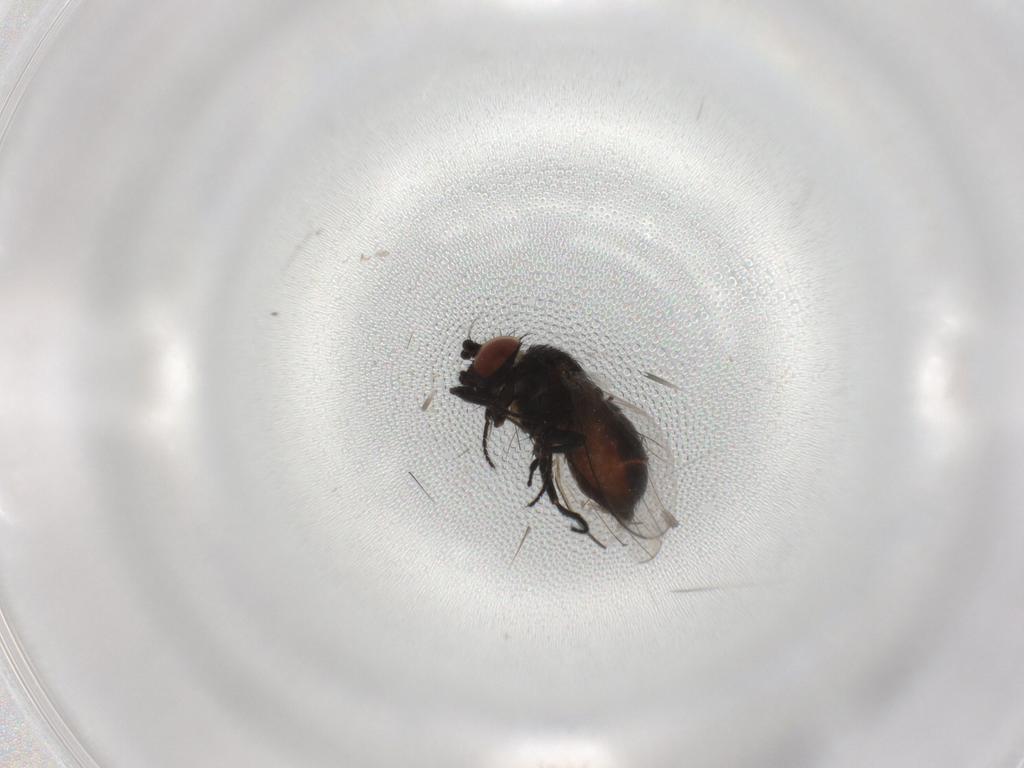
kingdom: Animalia
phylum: Arthropoda
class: Insecta
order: Diptera
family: Milichiidae
